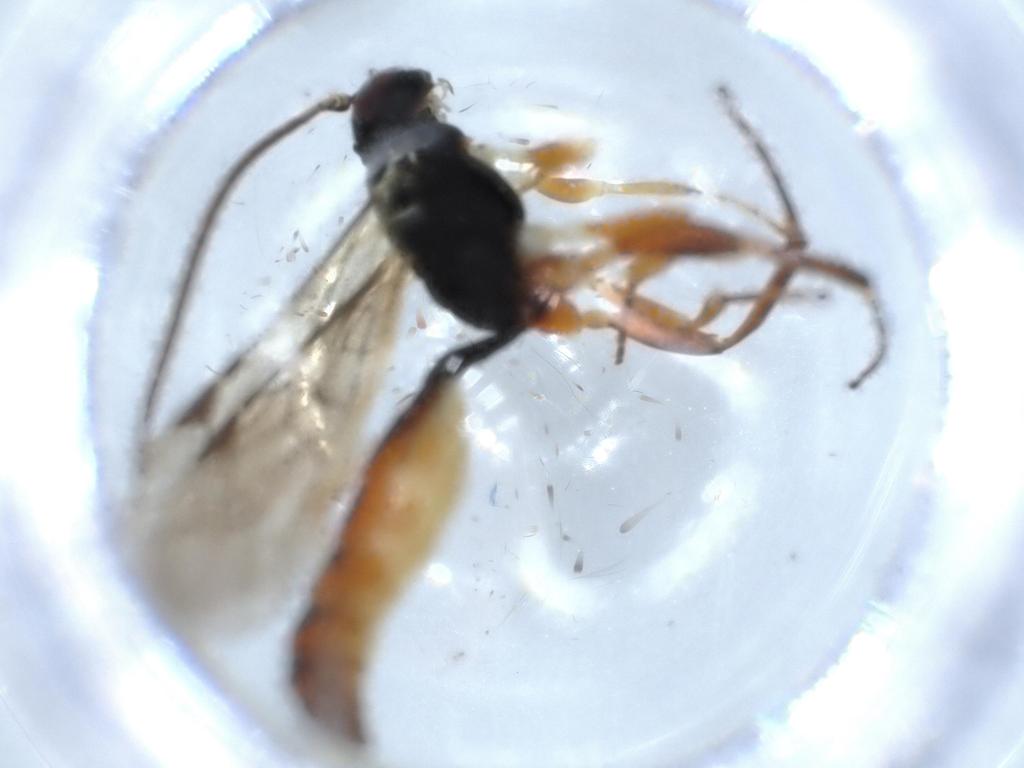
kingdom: Animalia
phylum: Arthropoda
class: Insecta
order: Hymenoptera
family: Ichneumonidae
